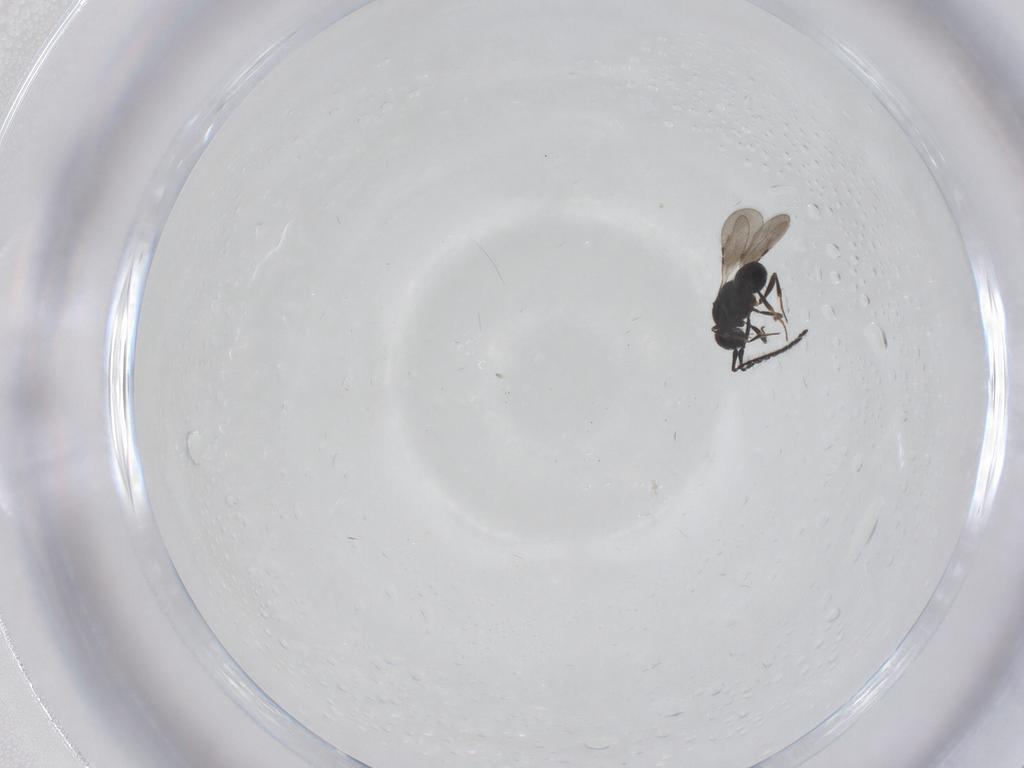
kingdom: Animalia
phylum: Arthropoda
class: Insecta
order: Hymenoptera
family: Ceraphronidae
